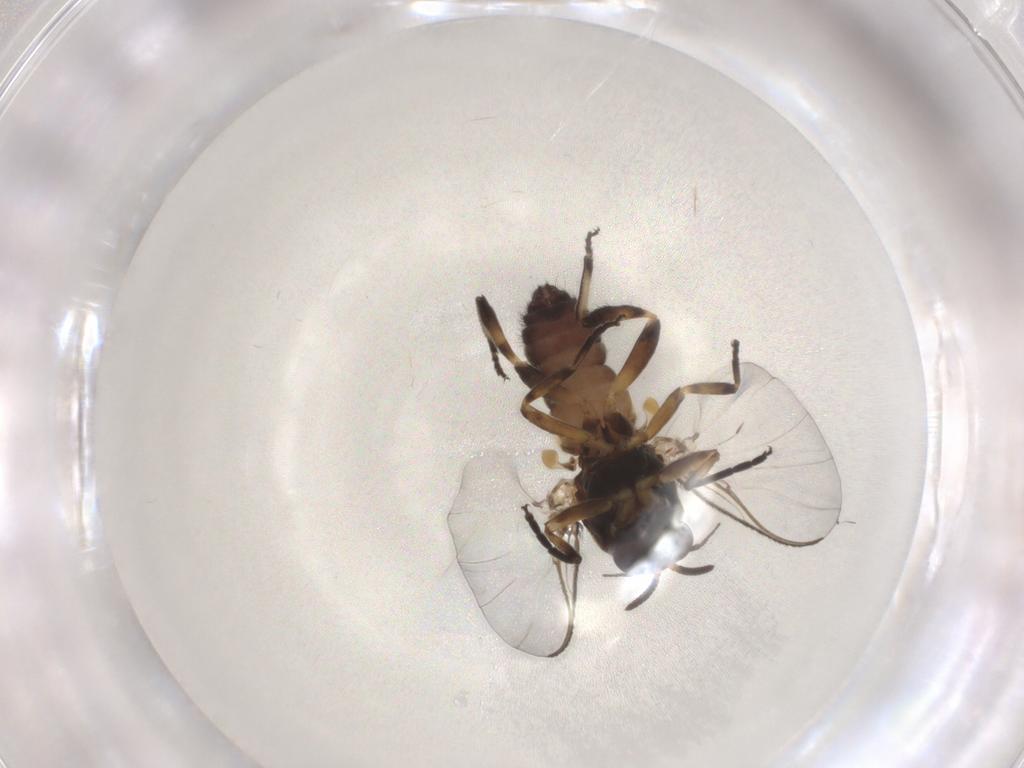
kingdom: Animalia
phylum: Arthropoda
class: Insecta
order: Diptera
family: Simuliidae
